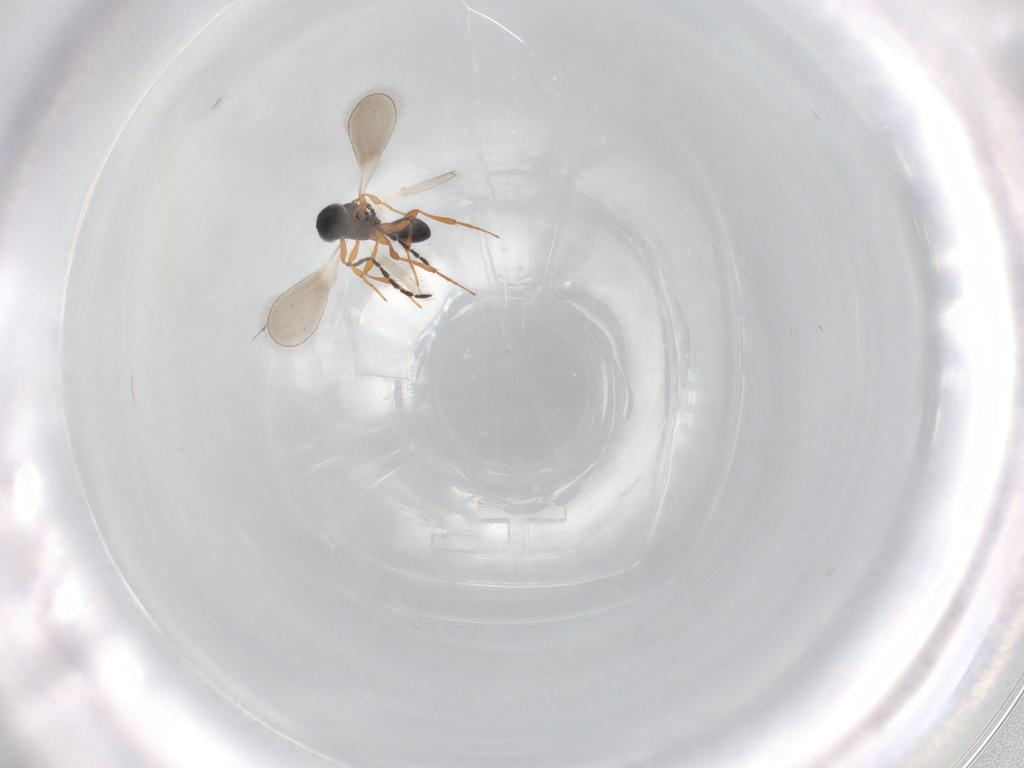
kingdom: Animalia
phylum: Arthropoda
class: Insecta
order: Hymenoptera
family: Platygastridae
